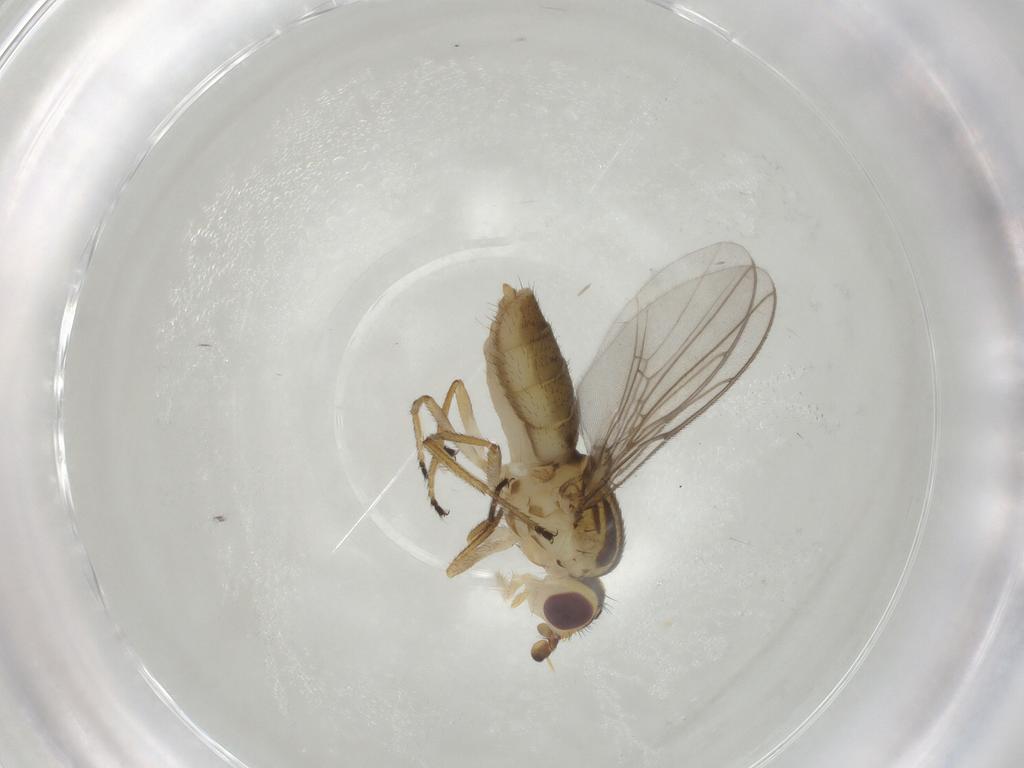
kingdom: Animalia
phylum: Arthropoda
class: Insecta
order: Diptera
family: Chloropidae
